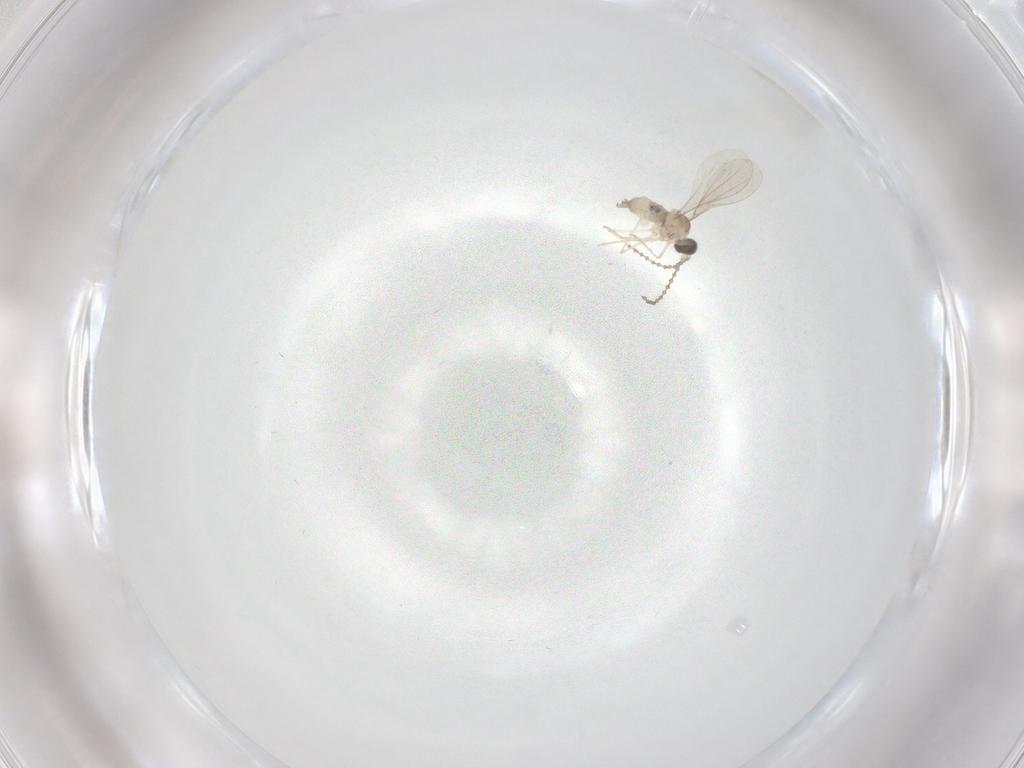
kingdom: Animalia
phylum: Arthropoda
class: Insecta
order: Diptera
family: Cecidomyiidae
